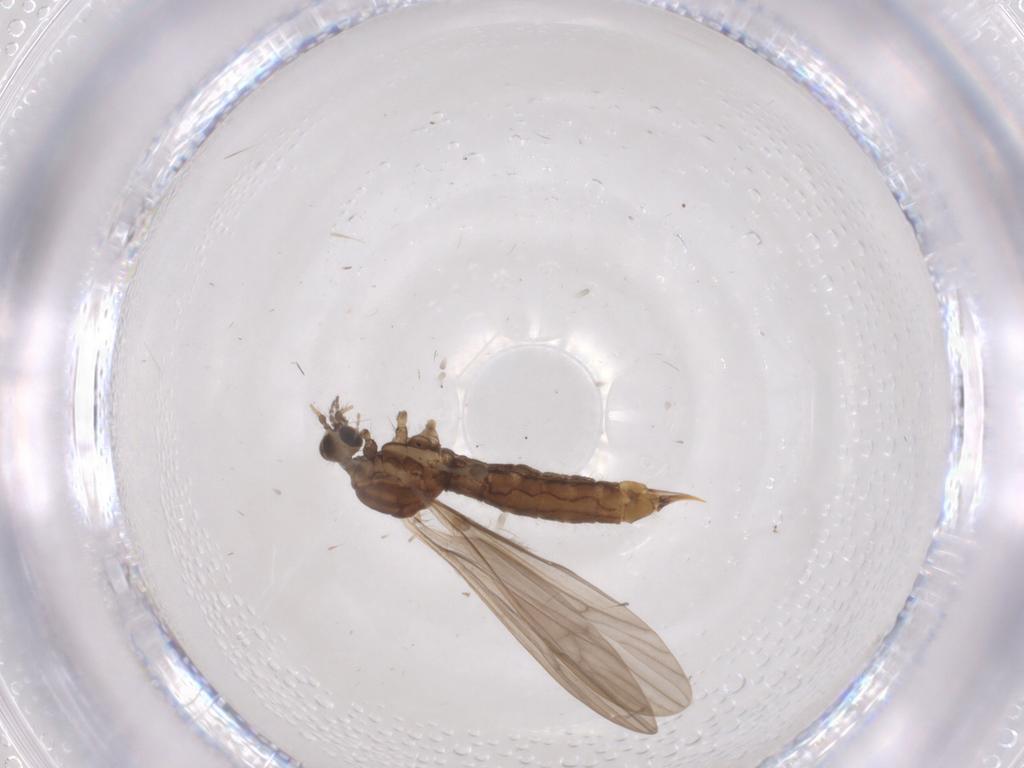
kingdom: Animalia
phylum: Arthropoda
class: Insecta
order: Diptera
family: Limoniidae
